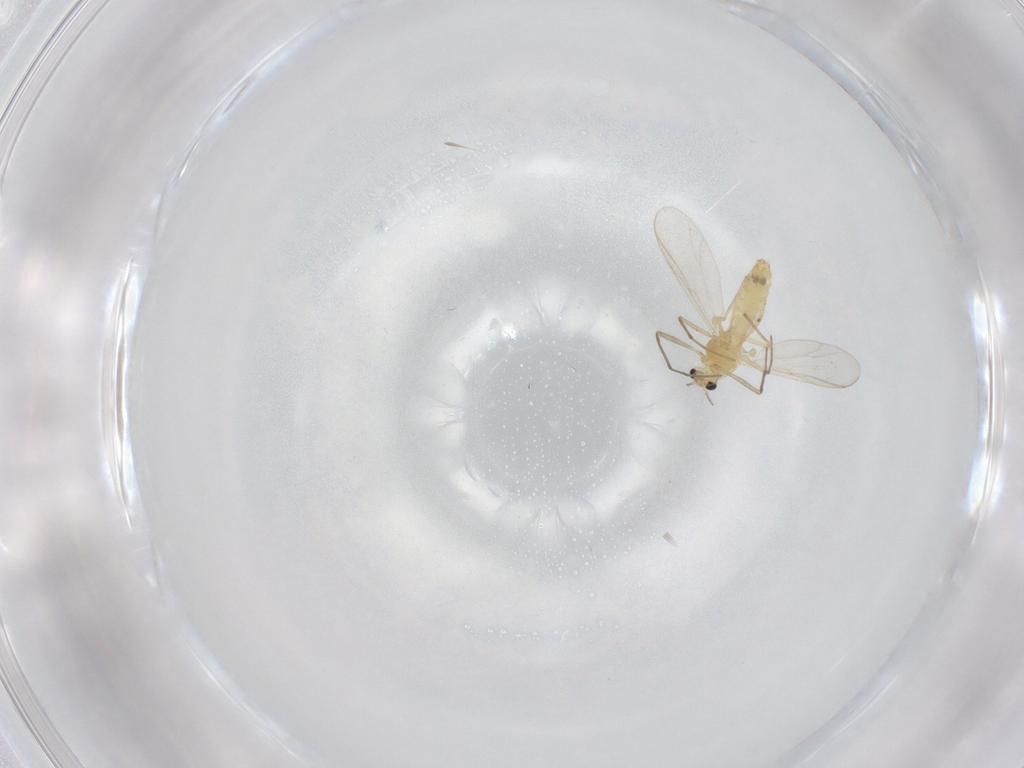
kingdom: Animalia
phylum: Arthropoda
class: Insecta
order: Diptera
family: Chironomidae
